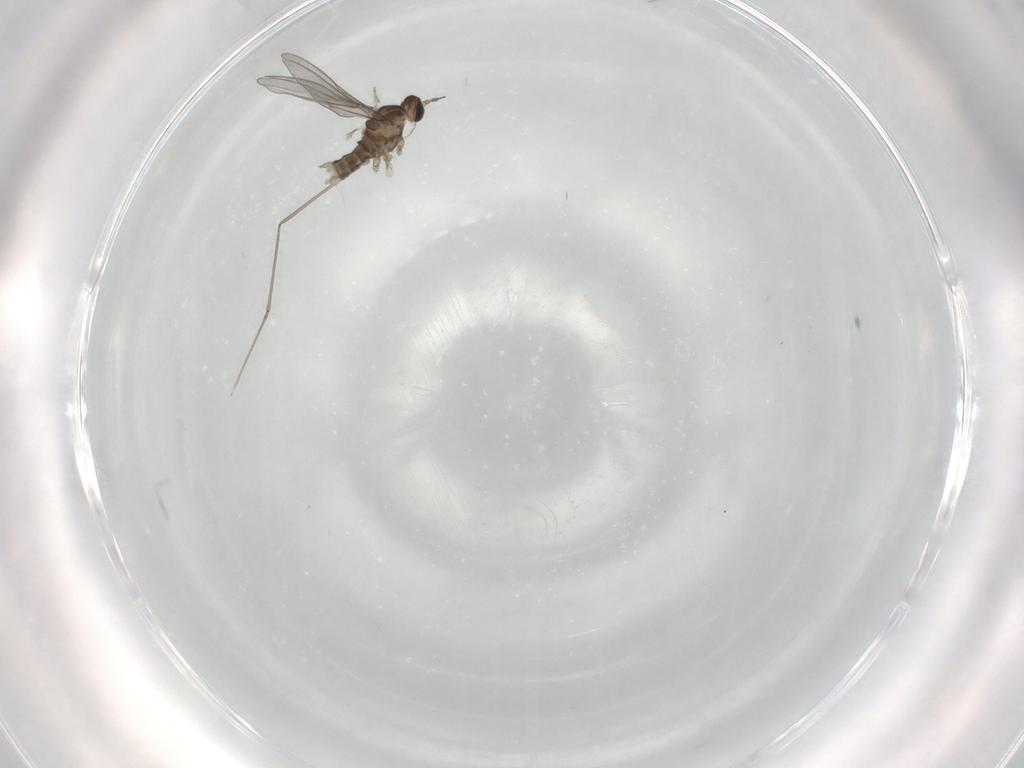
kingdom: Animalia
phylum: Arthropoda
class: Insecta
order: Diptera
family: Cecidomyiidae
